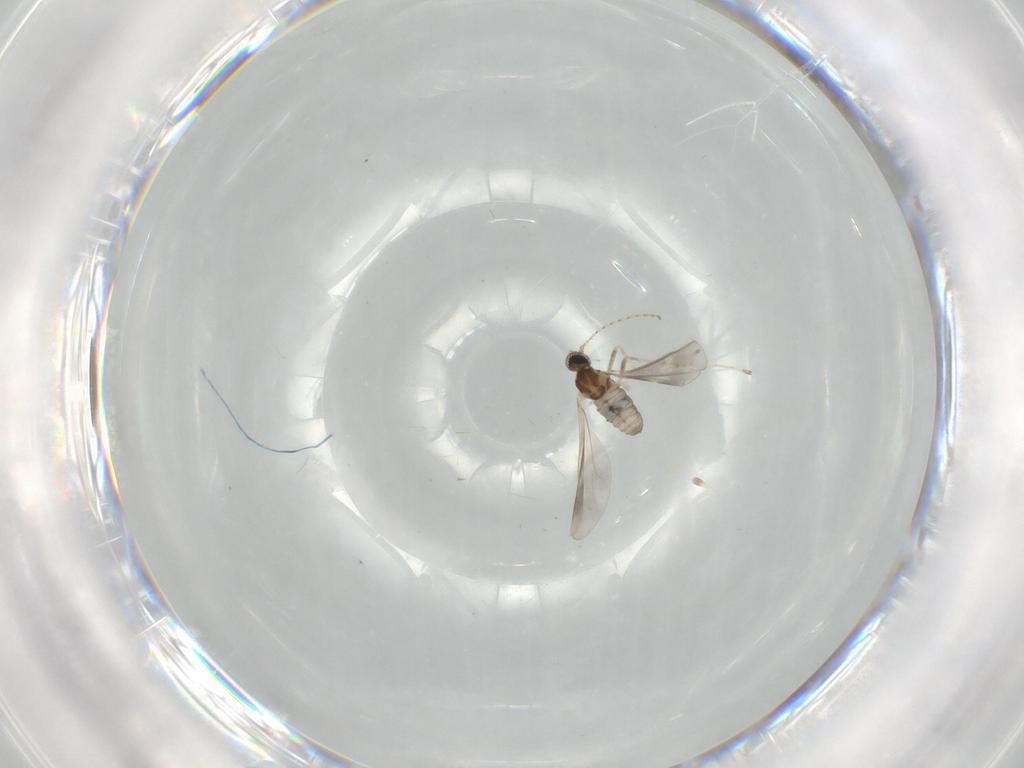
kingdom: Animalia
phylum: Arthropoda
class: Insecta
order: Diptera
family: Cecidomyiidae
